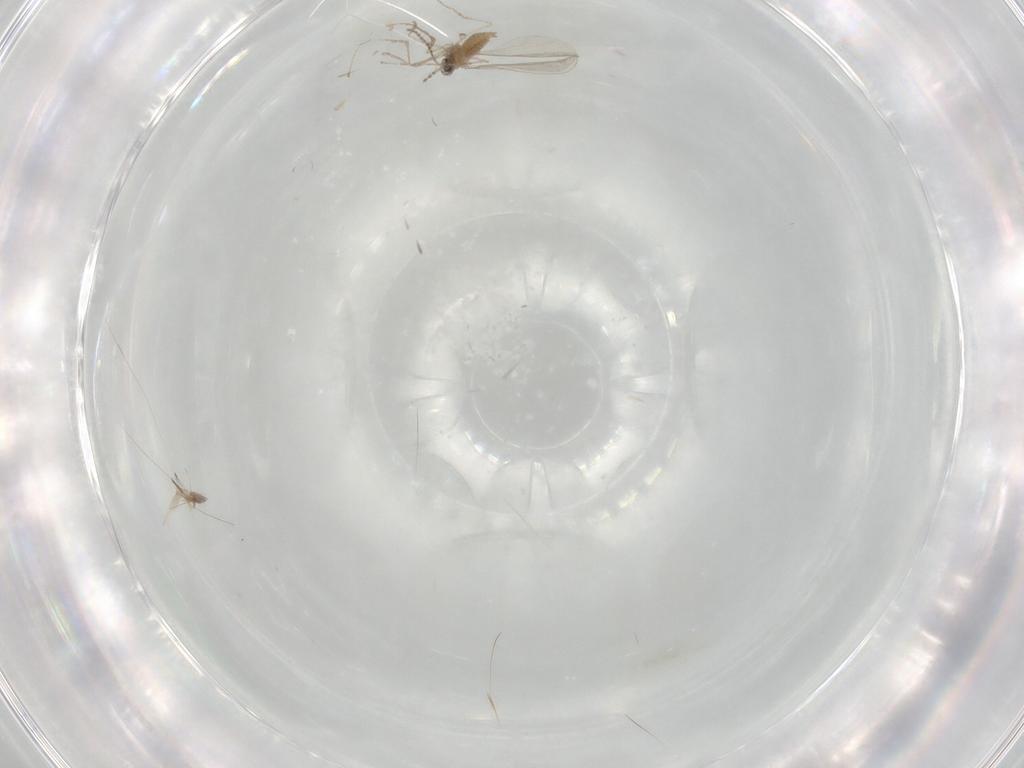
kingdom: Animalia
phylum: Arthropoda
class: Insecta
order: Diptera
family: Cecidomyiidae
